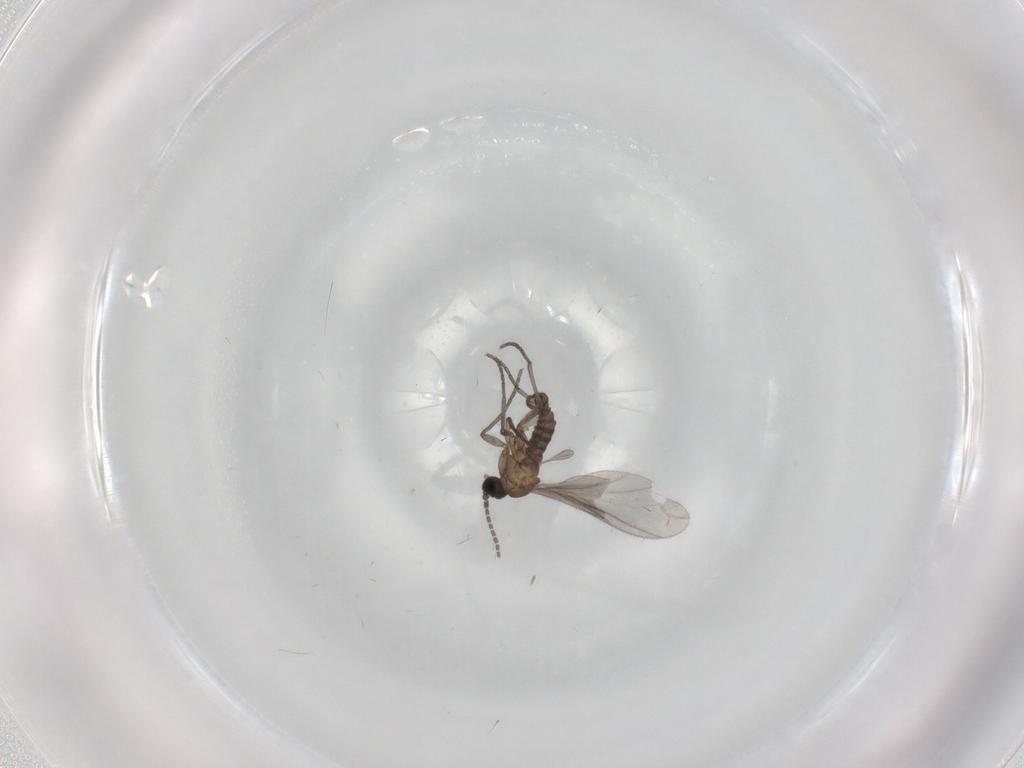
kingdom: Animalia
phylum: Arthropoda
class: Insecta
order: Diptera
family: Sciaridae
